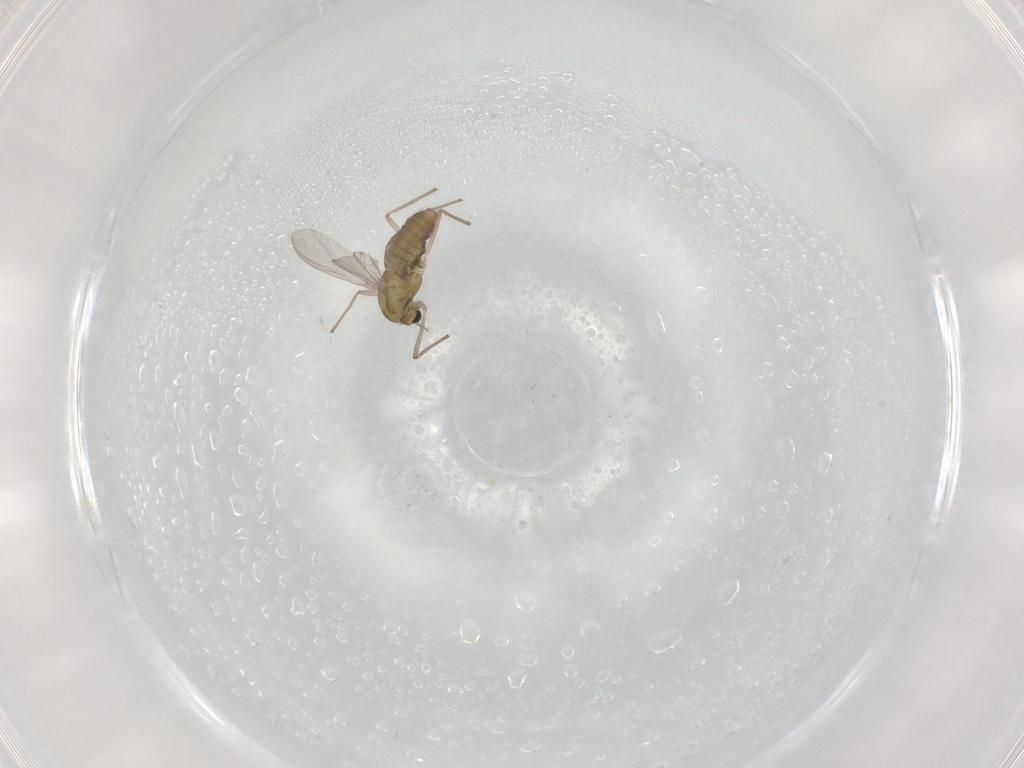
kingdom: Animalia
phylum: Arthropoda
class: Insecta
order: Diptera
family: Chironomidae
